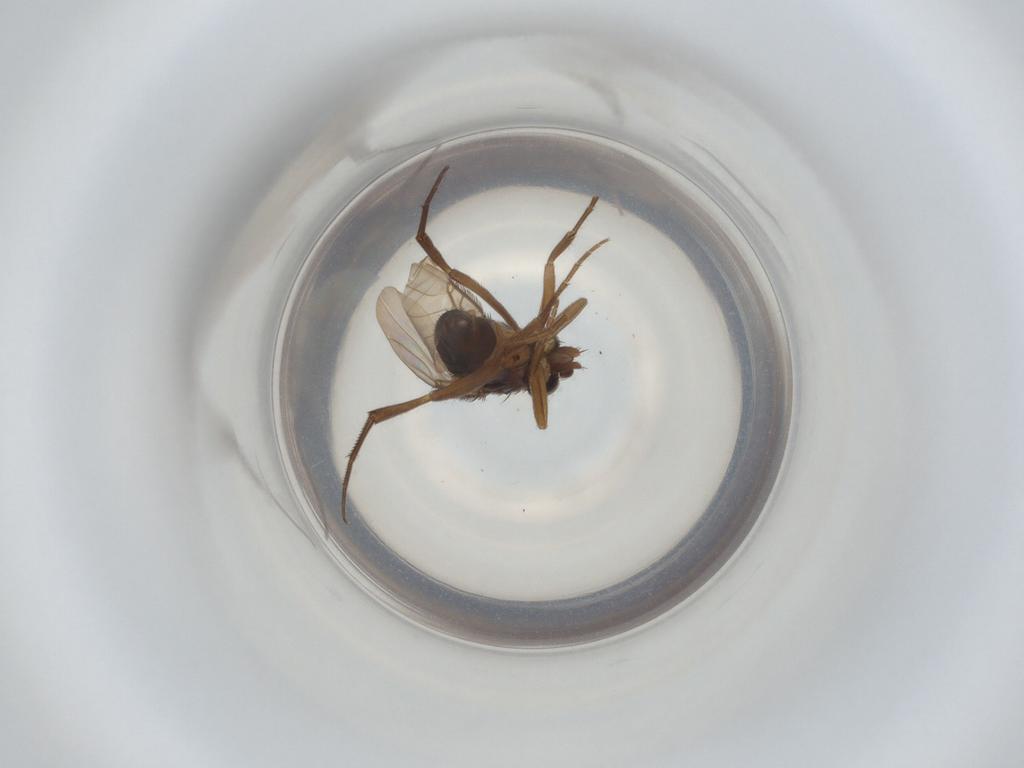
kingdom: Animalia
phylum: Arthropoda
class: Insecta
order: Diptera
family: Phoridae
